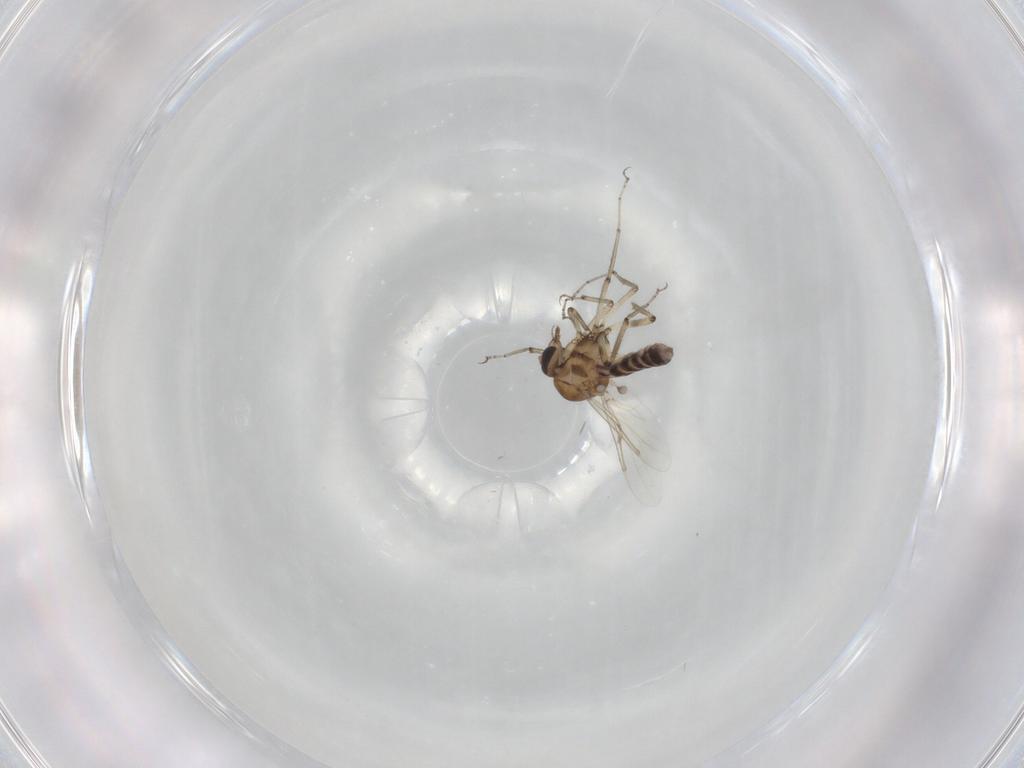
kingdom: Animalia
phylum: Arthropoda
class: Insecta
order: Diptera
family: Ceratopogonidae
